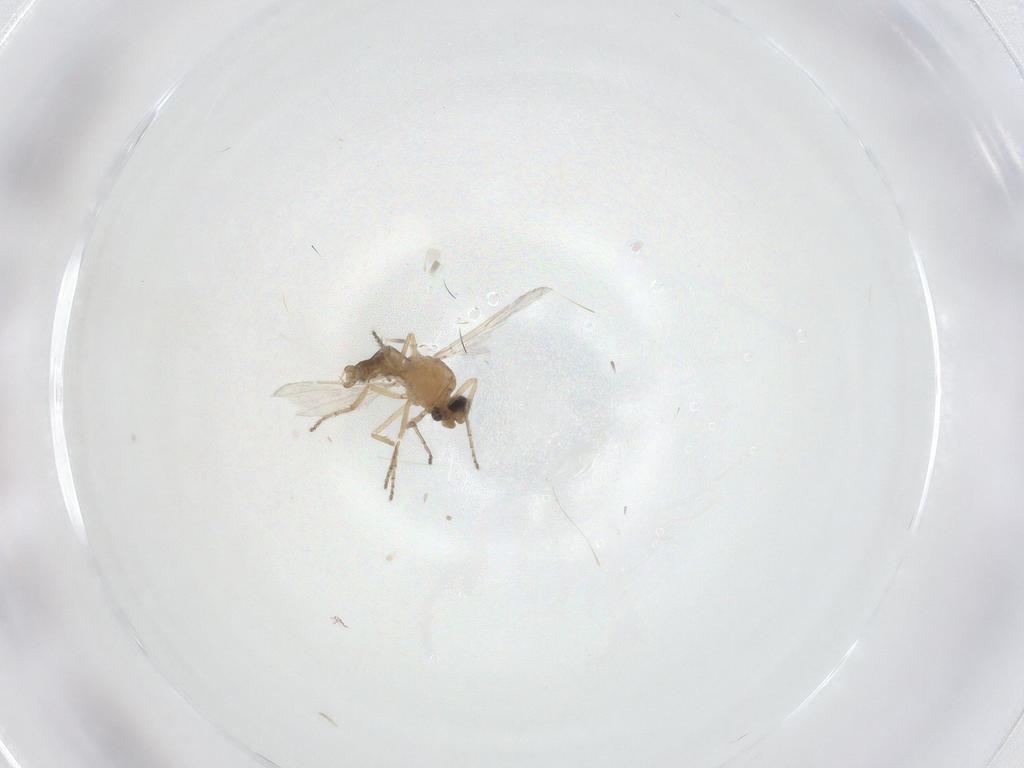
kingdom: Animalia
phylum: Arthropoda
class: Insecta
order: Diptera
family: Ceratopogonidae
